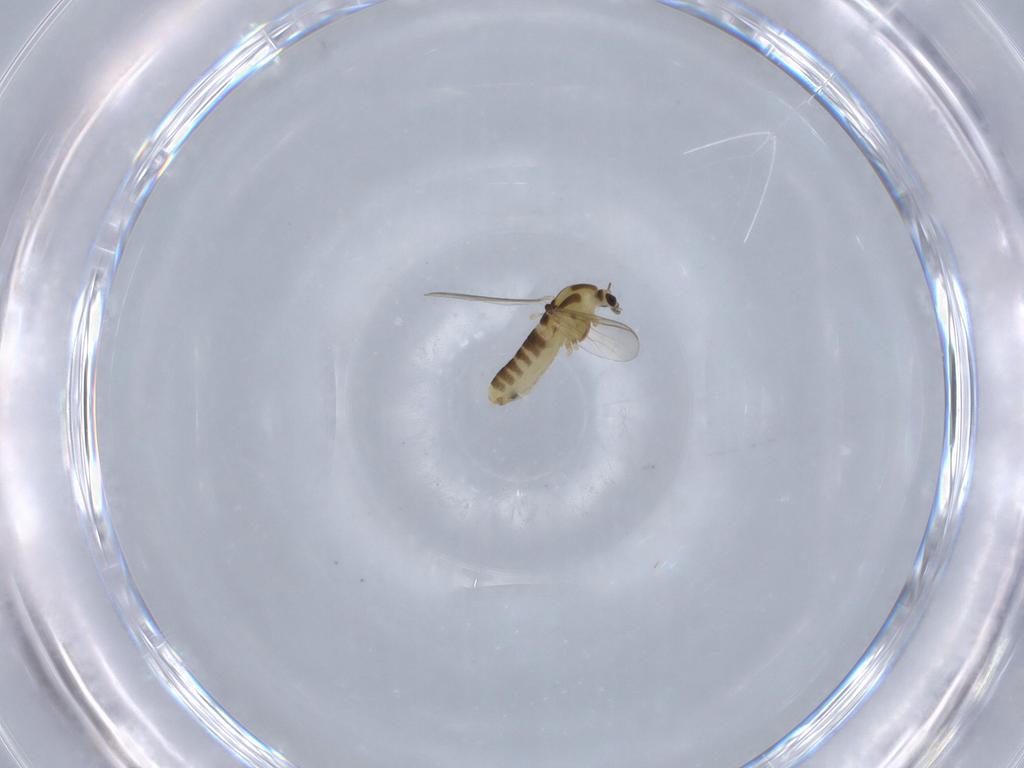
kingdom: Animalia
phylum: Arthropoda
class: Insecta
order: Diptera
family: Chironomidae
